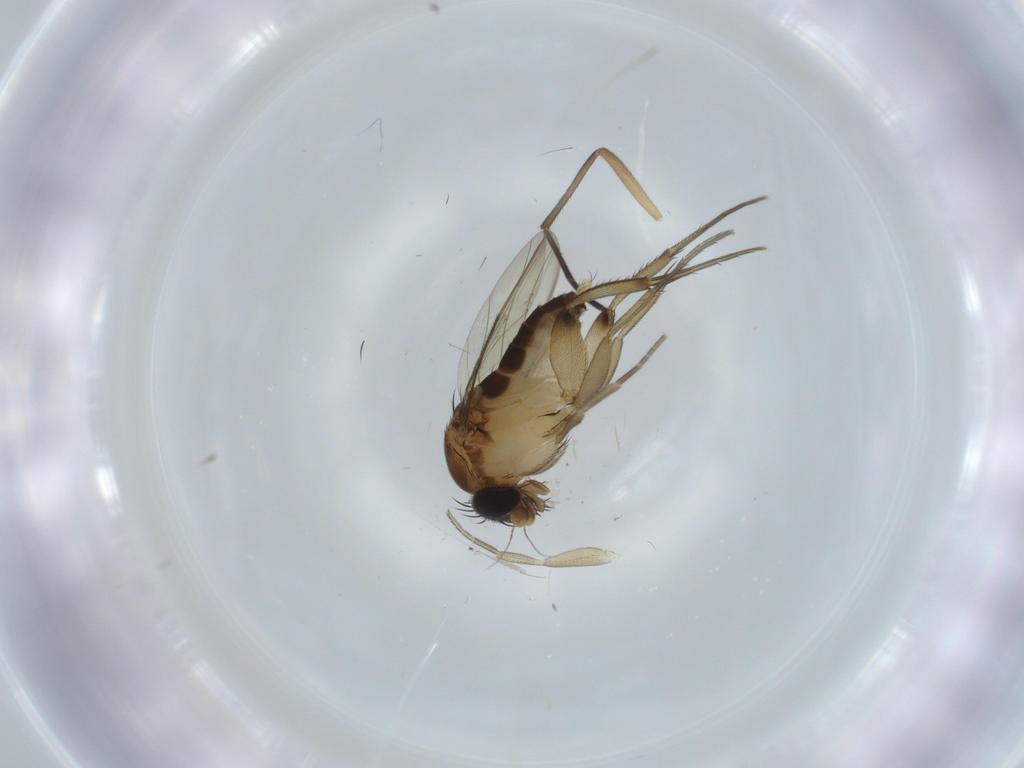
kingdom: Animalia
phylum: Arthropoda
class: Insecta
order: Diptera
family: Phoridae
